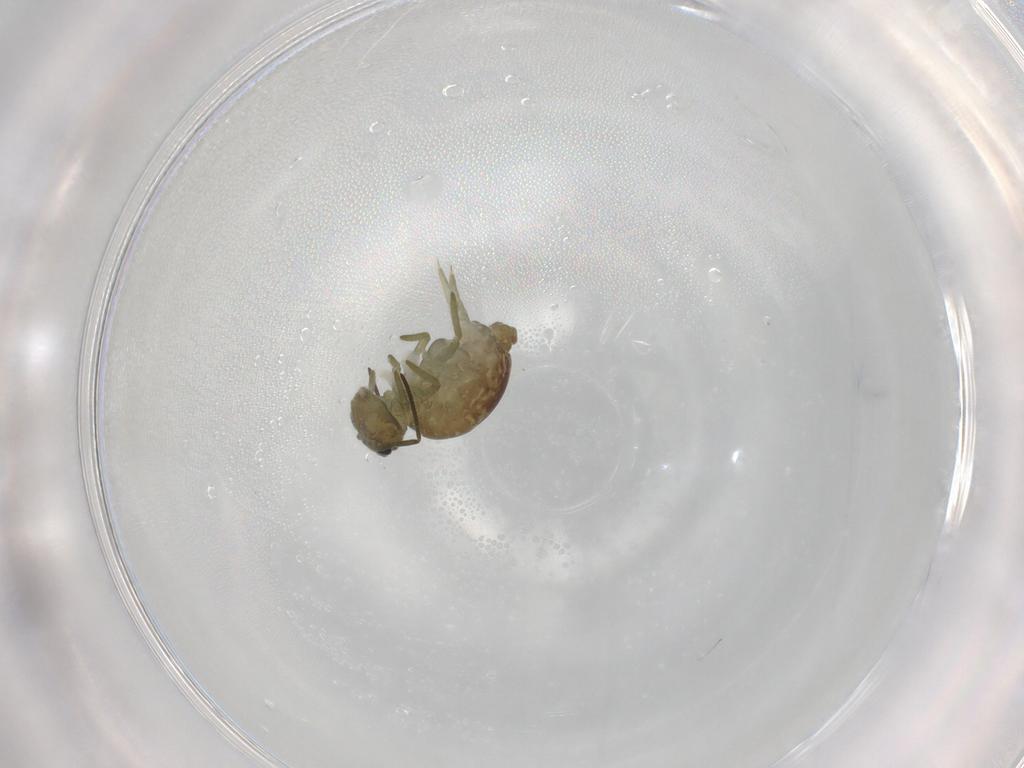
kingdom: Animalia
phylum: Arthropoda
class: Collembola
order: Symphypleona
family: Sminthuridae
